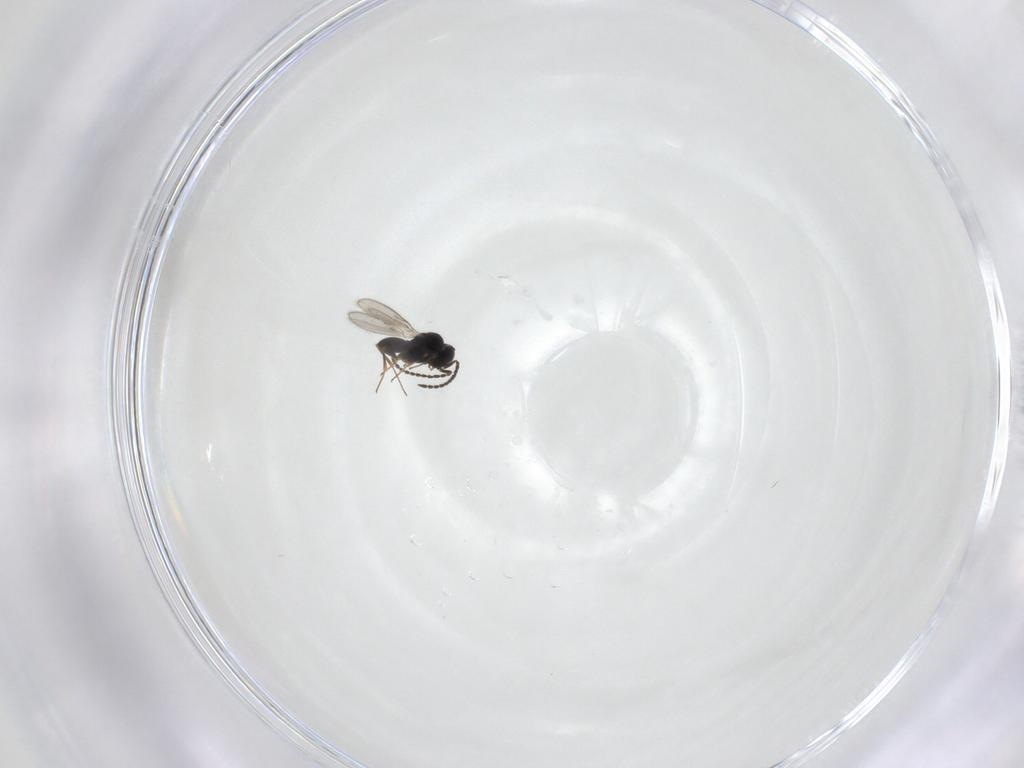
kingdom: Animalia
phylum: Arthropoda
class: Insecta
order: Hymenoptera
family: Scelionidae
